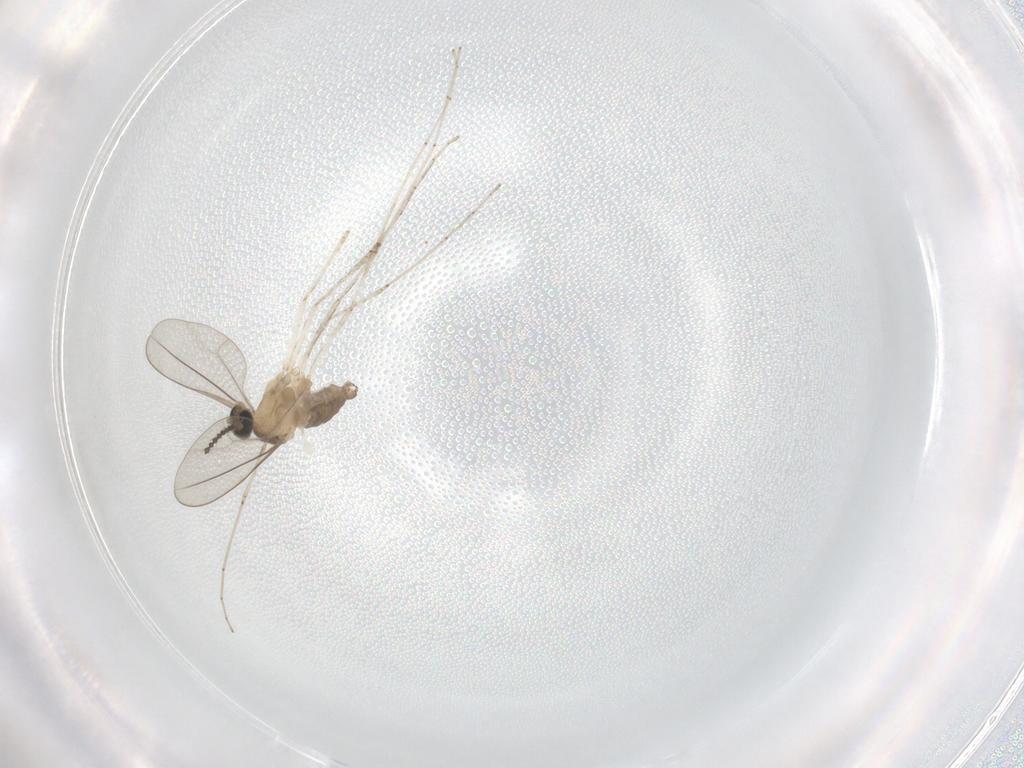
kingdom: Animalia
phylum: Arthropoda
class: Insecta
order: Diptera
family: Cecidomyiidae
